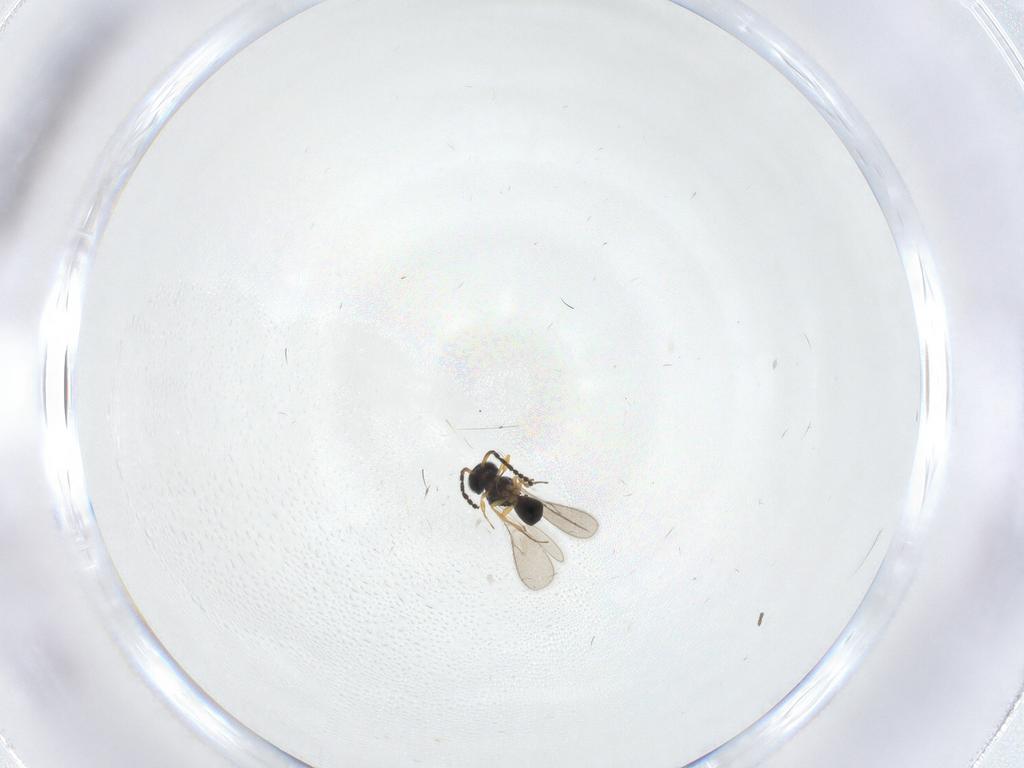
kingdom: Animalia
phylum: Arthropoda
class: Insecta
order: Hymenoptera
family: Scelionidae
